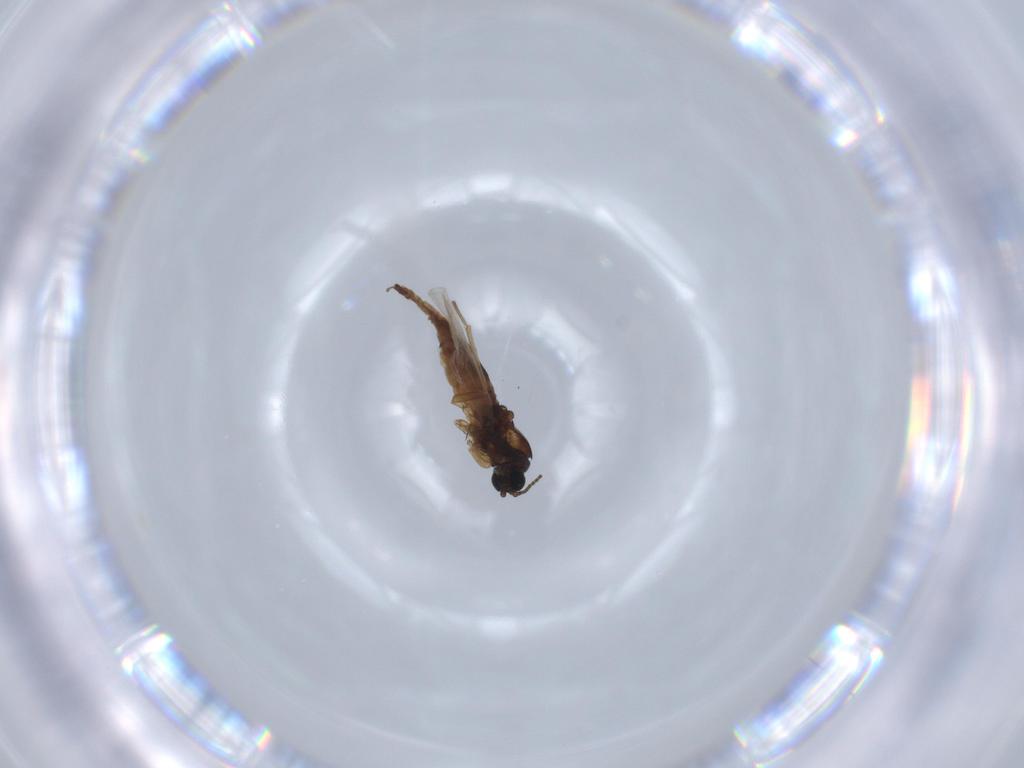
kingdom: Animalia
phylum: Arthropoda
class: Insecta
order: Diptera
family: Sciaridae
